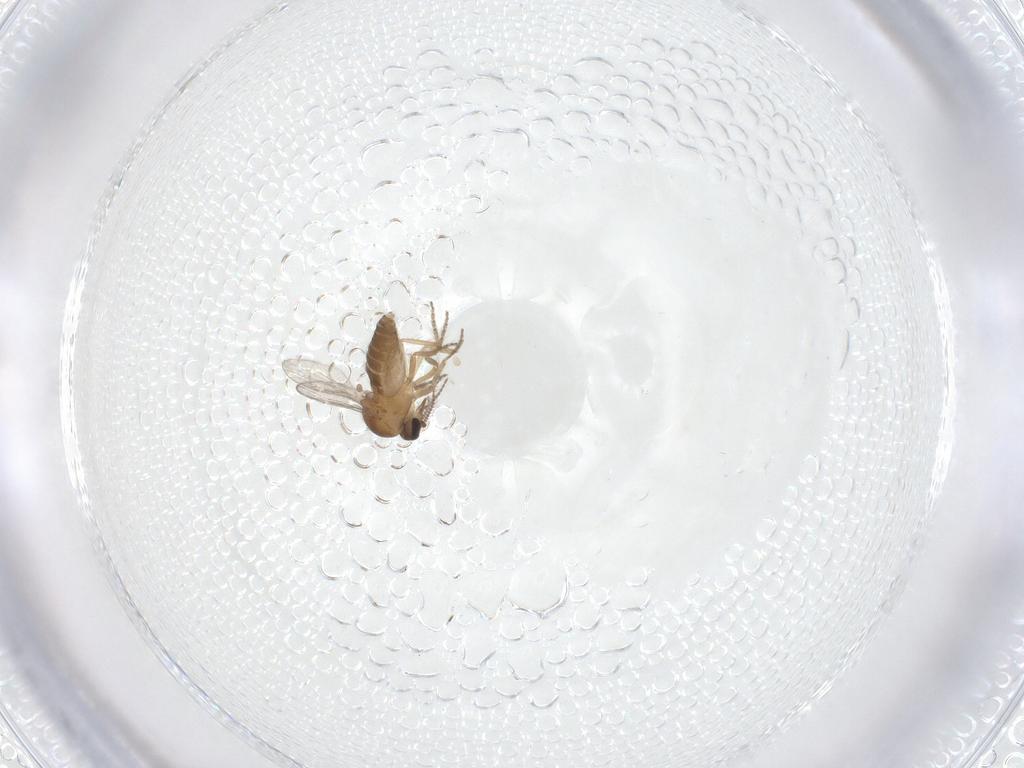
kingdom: Animalia
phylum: Arthropoda
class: Insecta
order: Diptera
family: Ceratopogonidae
